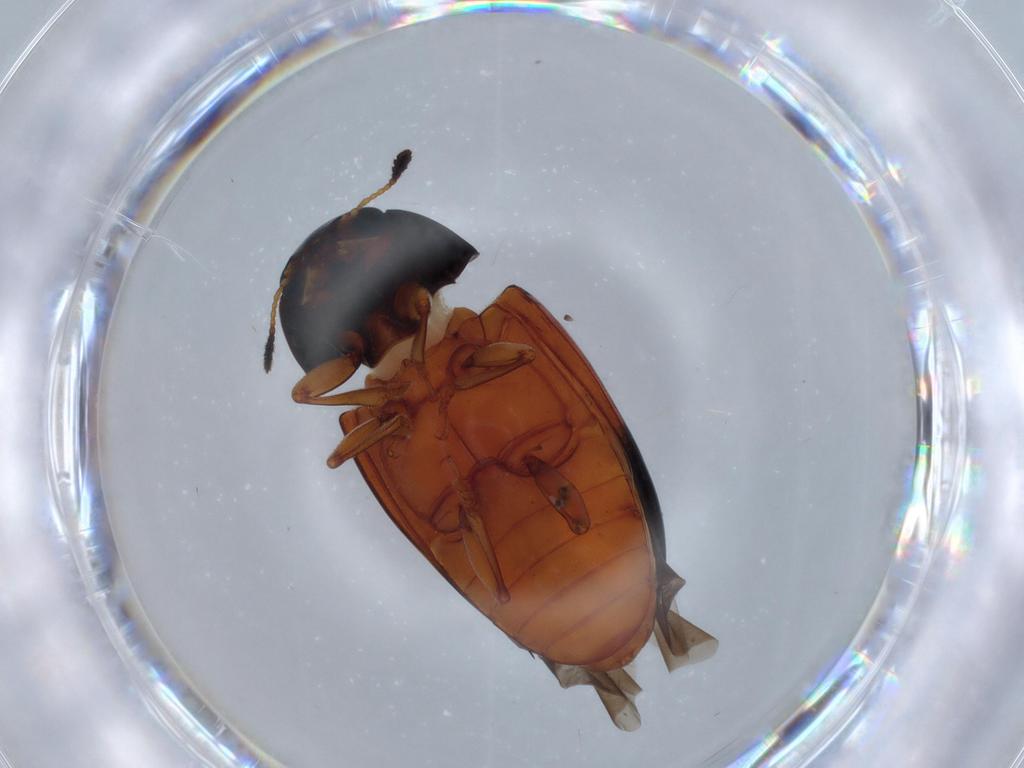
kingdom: Animalia
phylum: Arthropoda
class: Insecta
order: Coleoptera
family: Erotylidae
